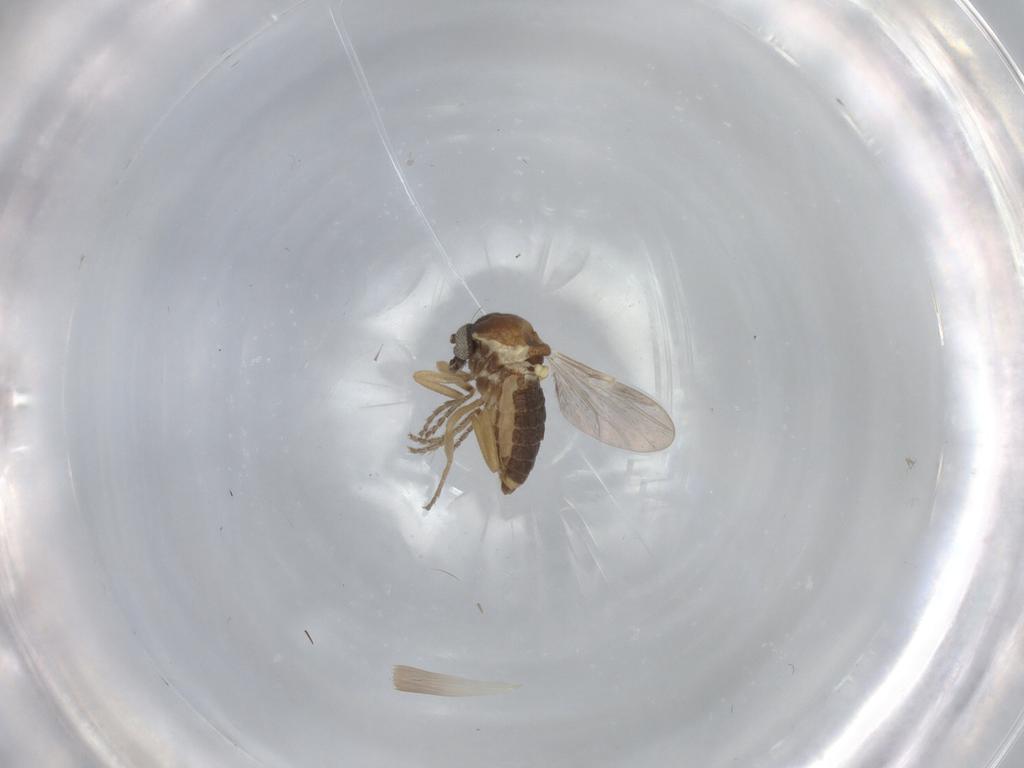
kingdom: Animalia
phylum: Arthropoda
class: Insecta
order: Diptera
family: Ceratopogonidae
